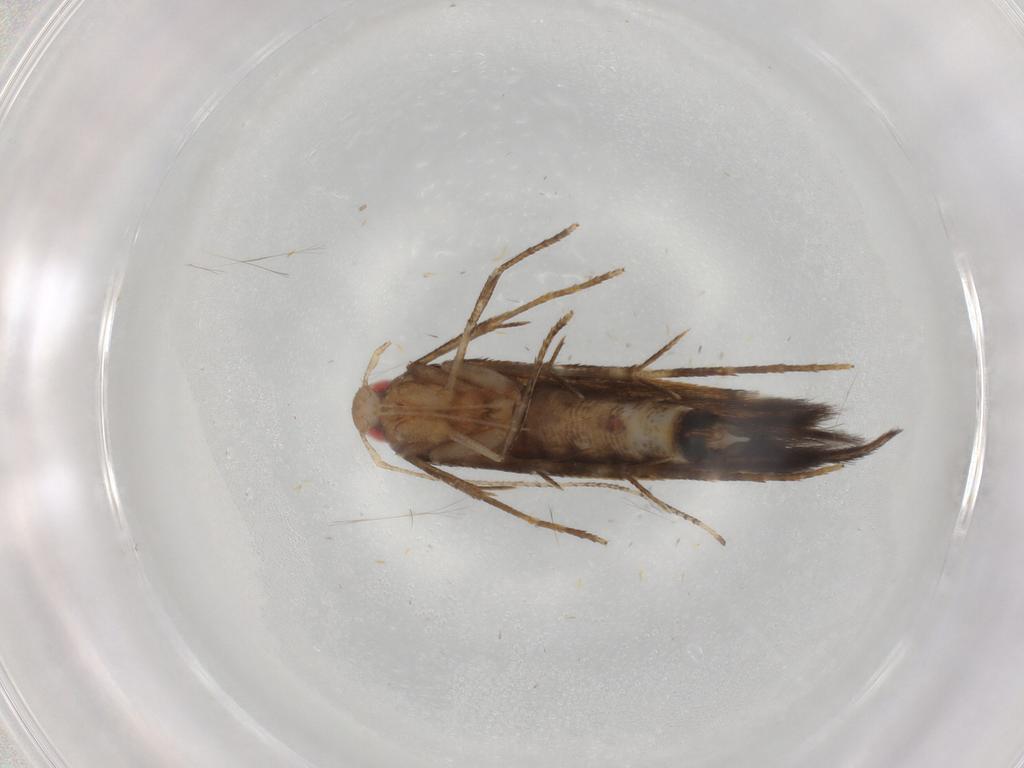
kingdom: Animalia
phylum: Arthropoda
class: Insecta
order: Lepidoptera
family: Cosmopterigidae
